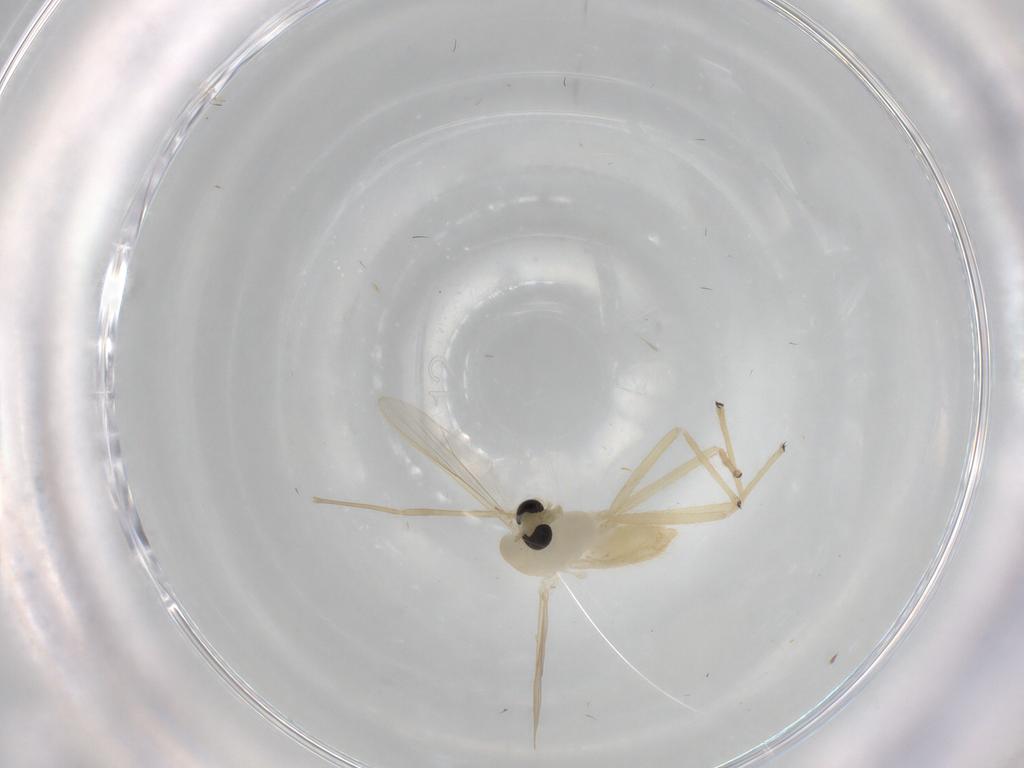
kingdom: Animalia
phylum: Arthropoda
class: Insecta
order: Diptera
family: Chironomidae
